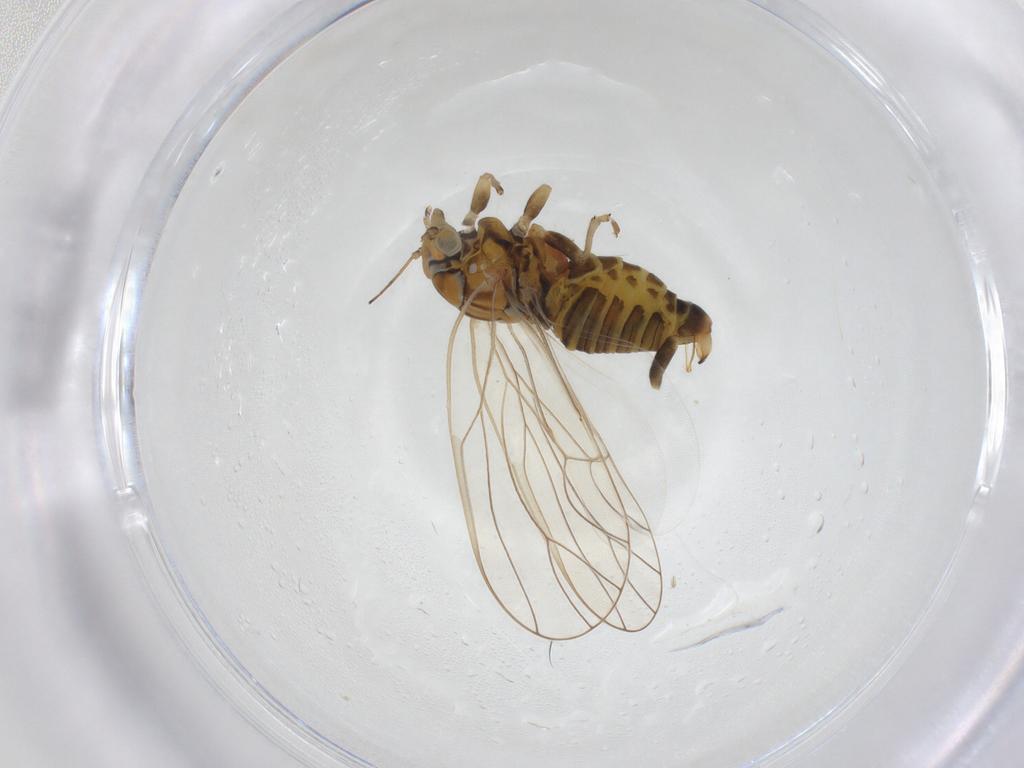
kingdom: Animalia
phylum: Arthropoda
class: Insecta
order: Hemiptera
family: Psyllidae
